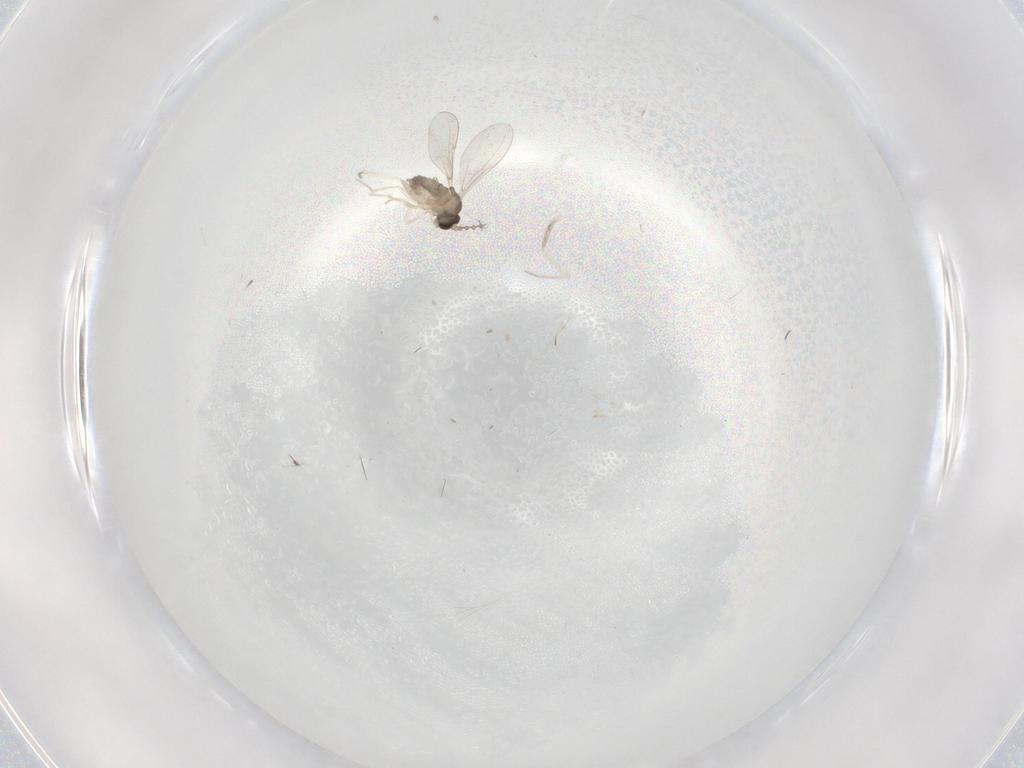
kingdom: Animalia
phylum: Arthropoda
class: Insecta
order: Diptera
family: Cecidomyiidae
